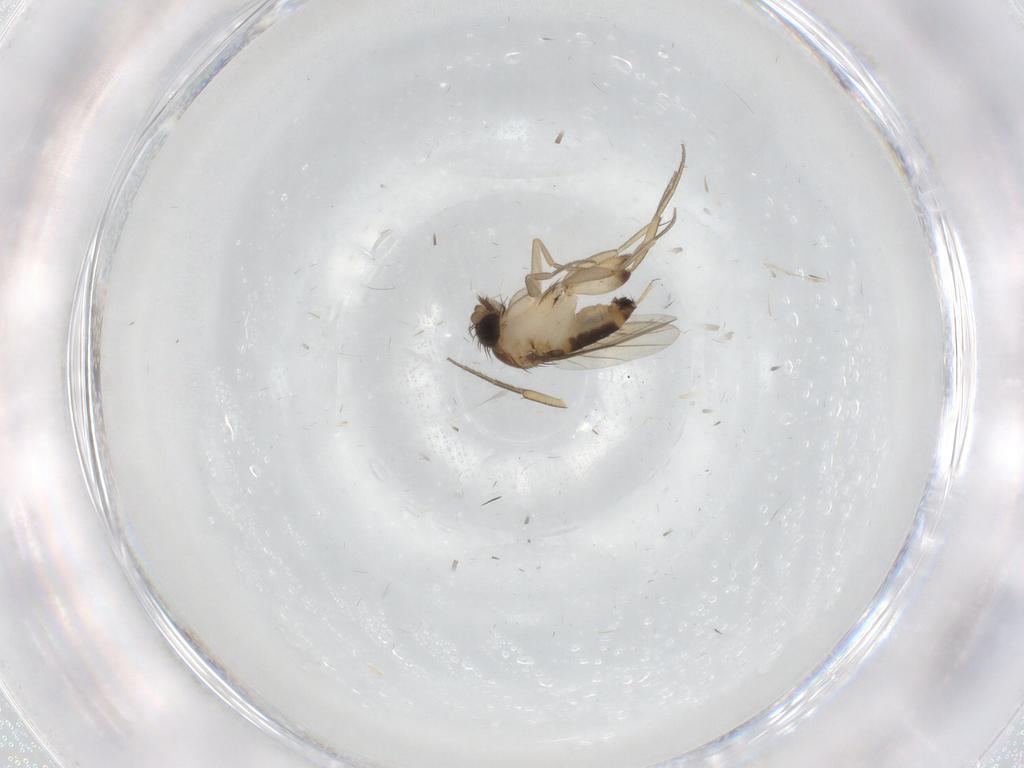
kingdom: Animalia
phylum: Arthropoda
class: Insecta
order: Diptera
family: Phoridae
